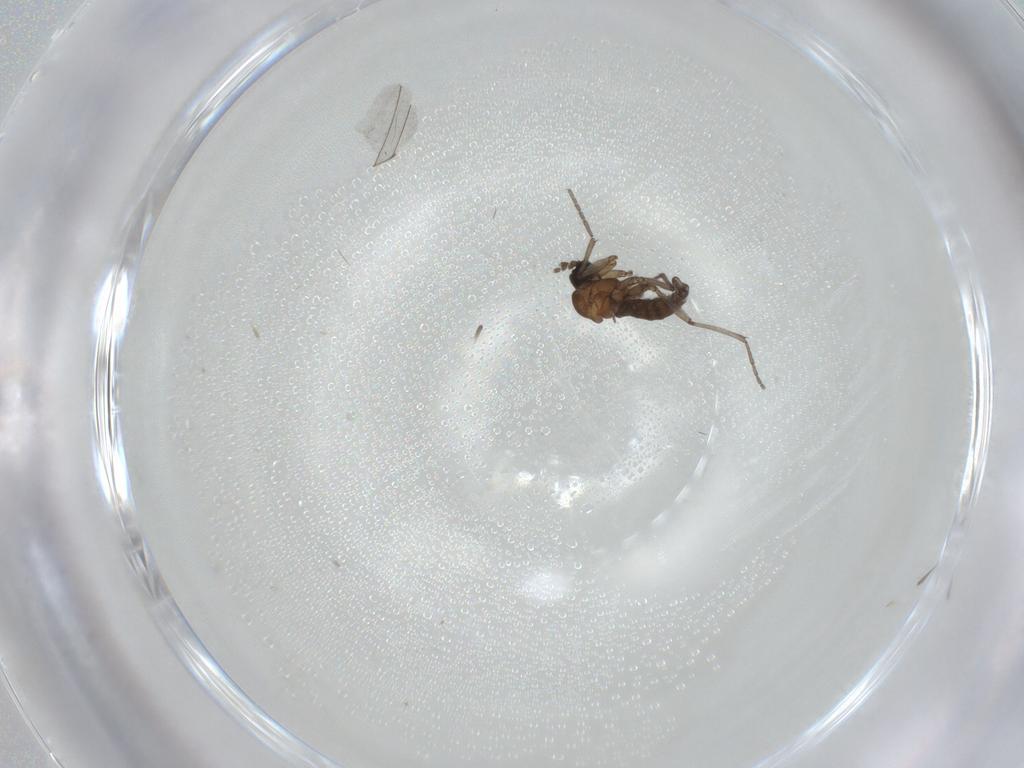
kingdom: Animalia
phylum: Arthropoda
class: Insecta
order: Diptera
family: Sciaridae
